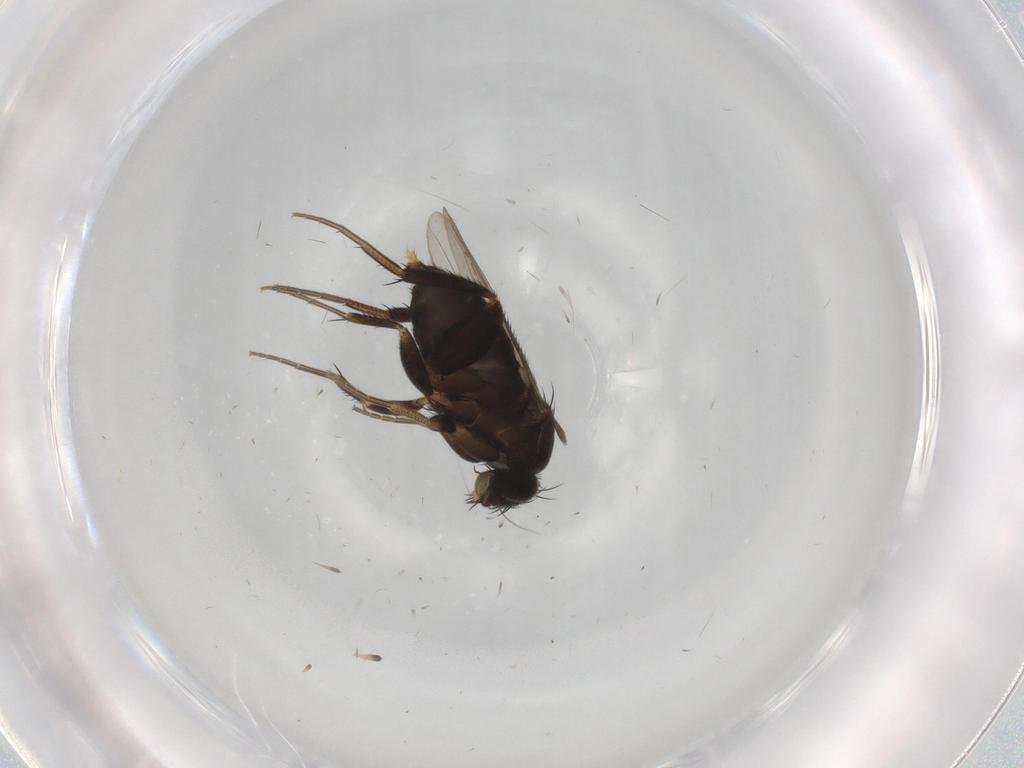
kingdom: Animalia
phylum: Arthropoda
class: Insecta
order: Diptera
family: Phoridae
